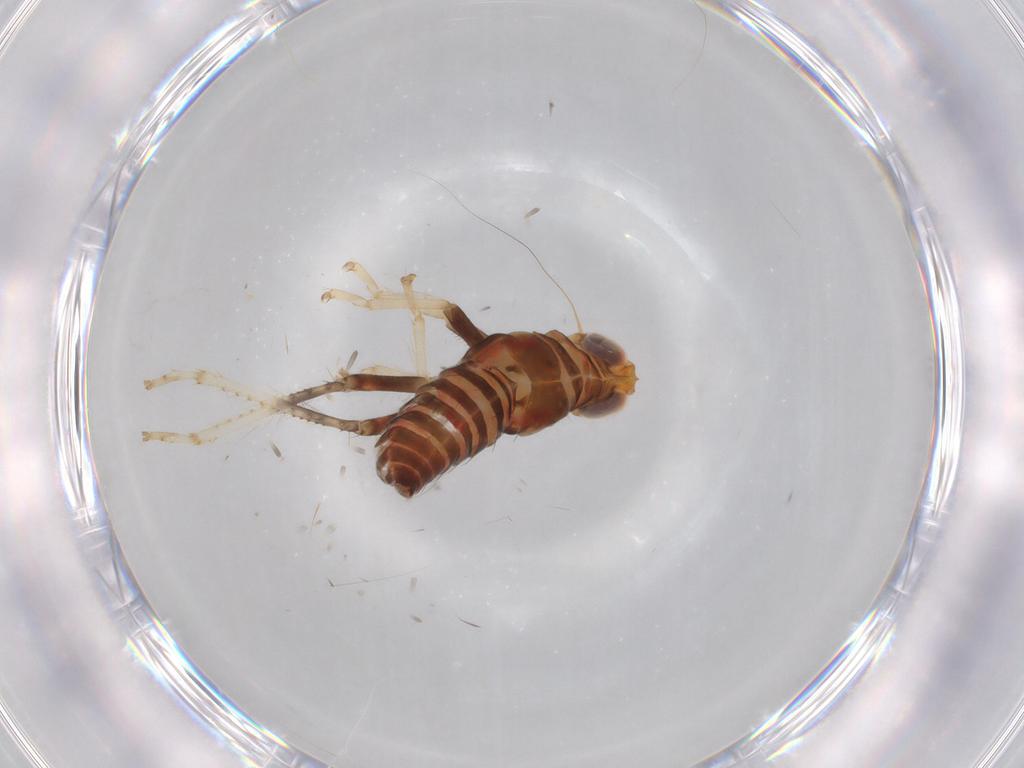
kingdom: Animalia
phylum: Arthropoda
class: Insecta
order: Hemiptera
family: Cicadellidae
